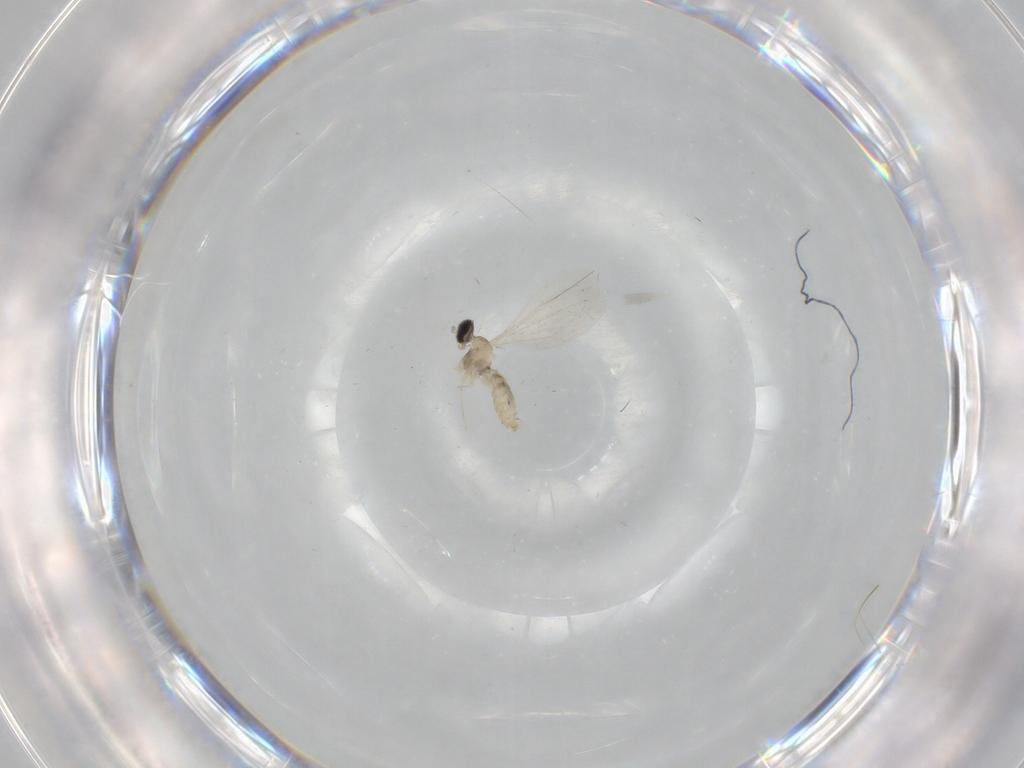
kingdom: Animalia
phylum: Arthropoda
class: Insecta
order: Diptera
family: Cecidomyiidae
